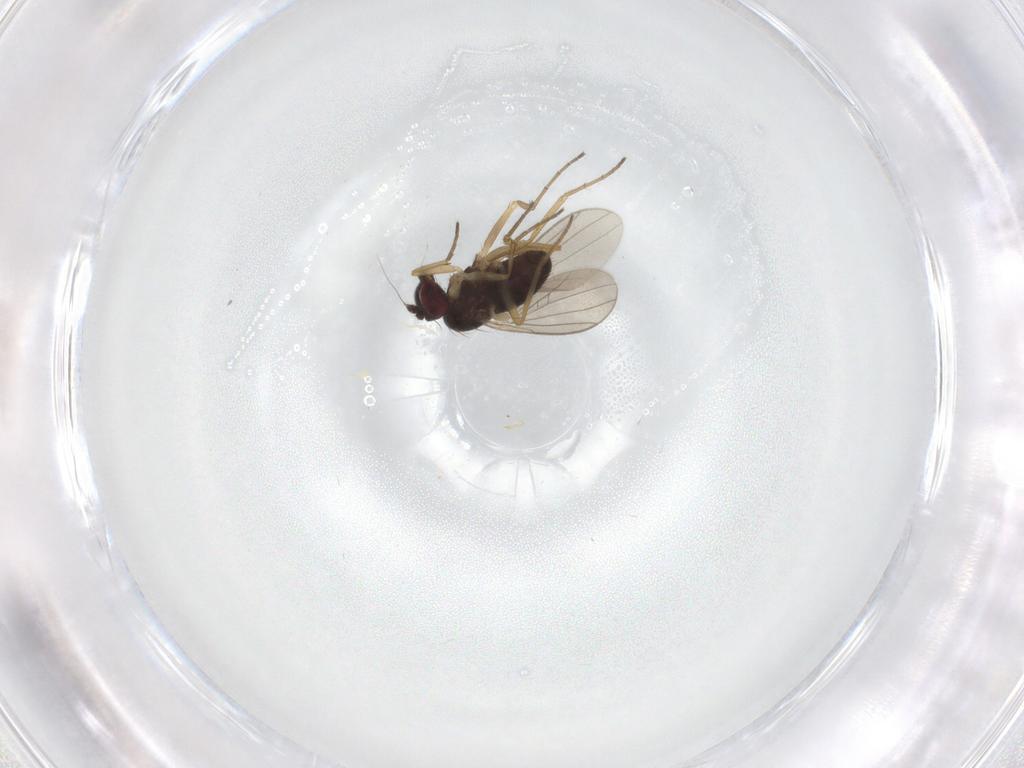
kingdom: Animalia
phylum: Arthropoda
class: Insecta
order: Diptera
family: Dolichopodidae
